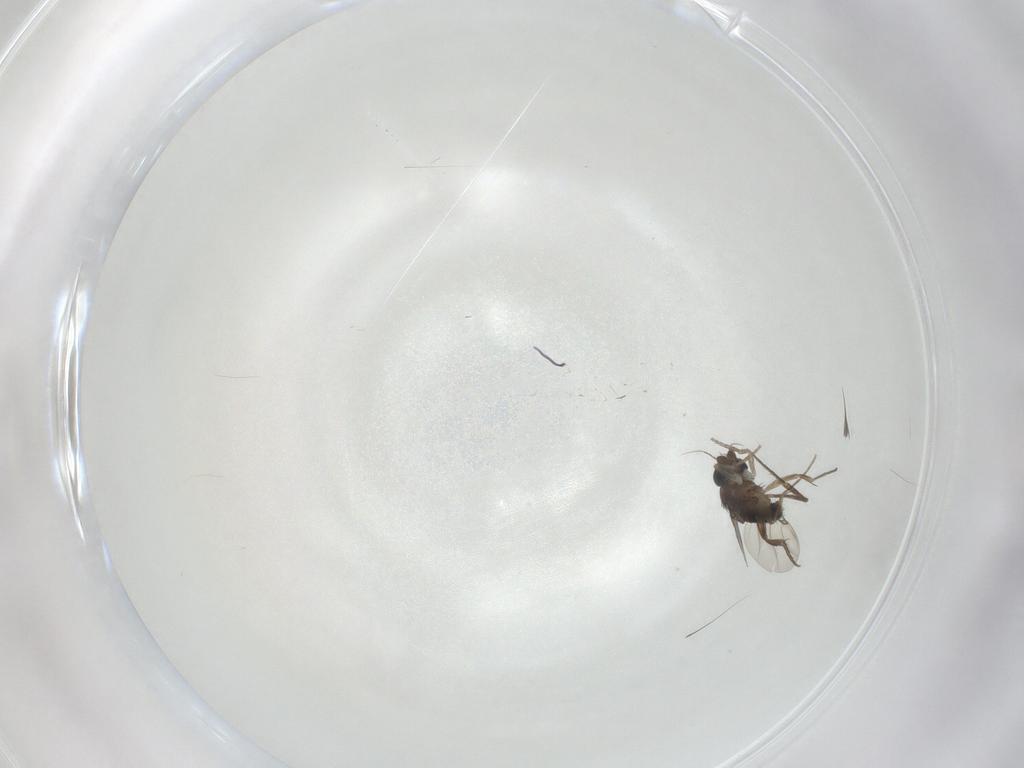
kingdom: Animalia
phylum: Arthropoda
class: Insecta
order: Diptera
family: Phoridae
